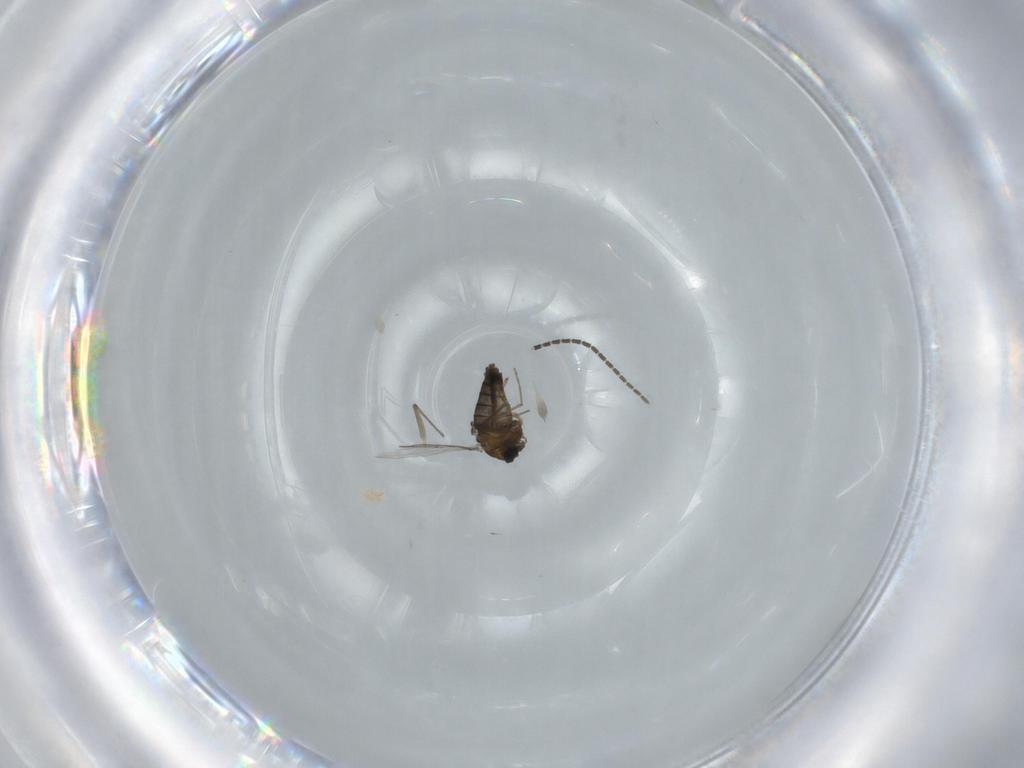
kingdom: Animalia
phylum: Arthropoda
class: Insecta
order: Diptera
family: Sciaridae
